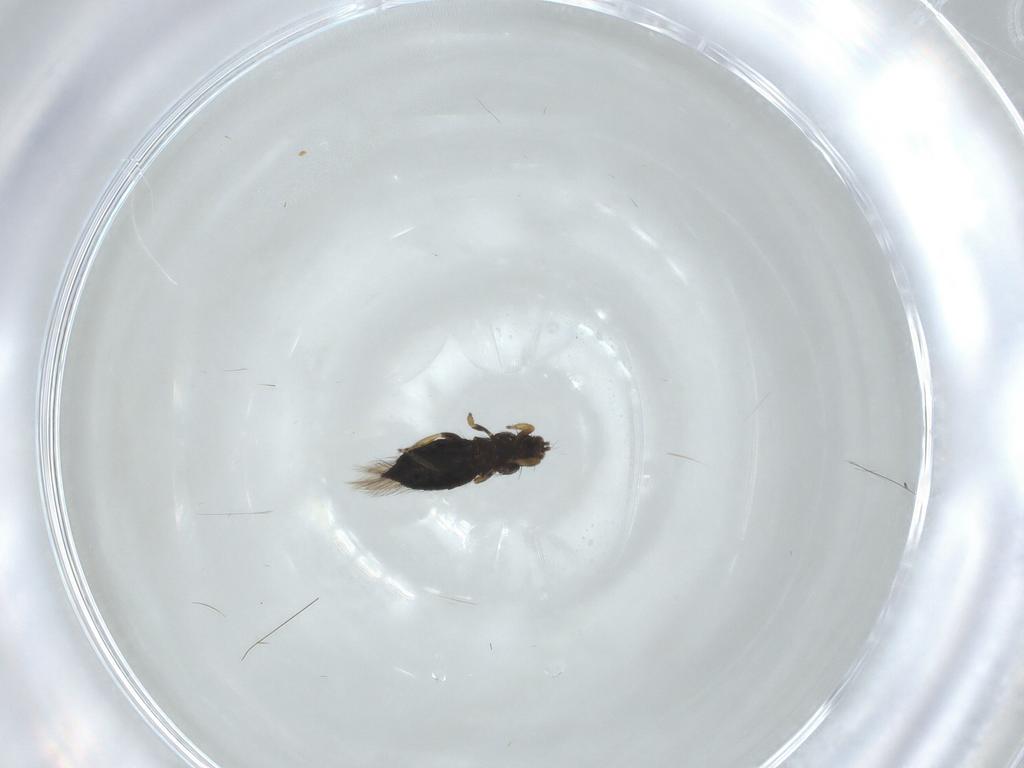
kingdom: Animalia
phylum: Arthropoda
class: Insecta
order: Thysanoptera
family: Thripidae
